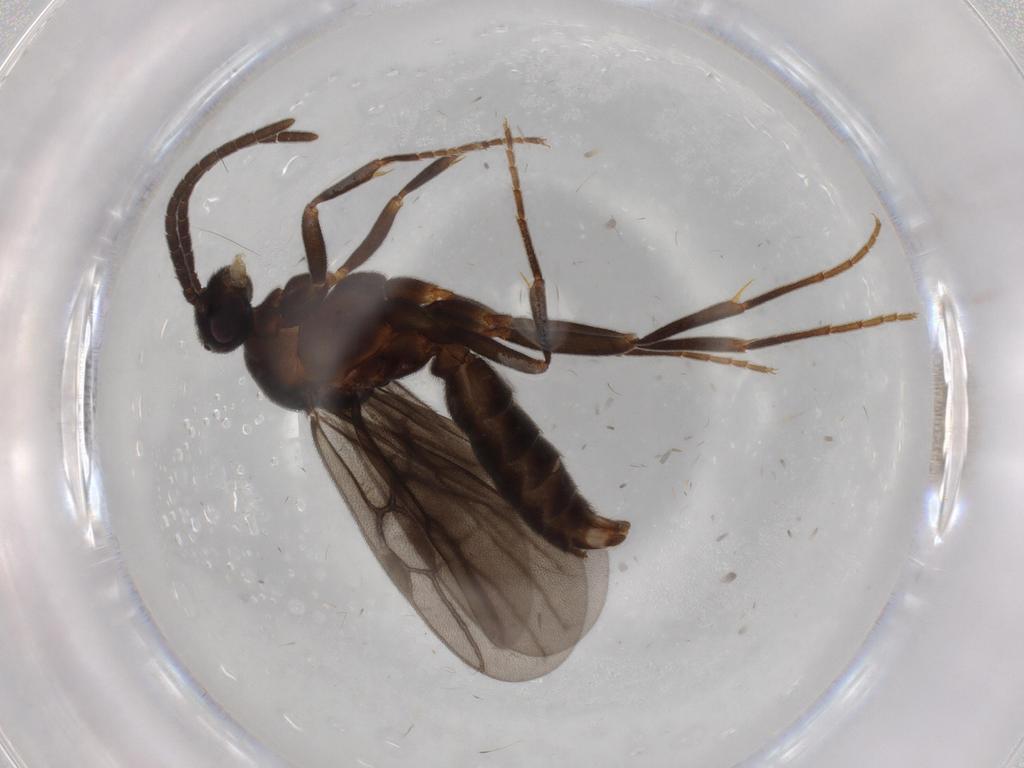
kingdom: Animalia
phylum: Arthropoda
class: Insecta
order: Hymenoptera
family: Formicidae
